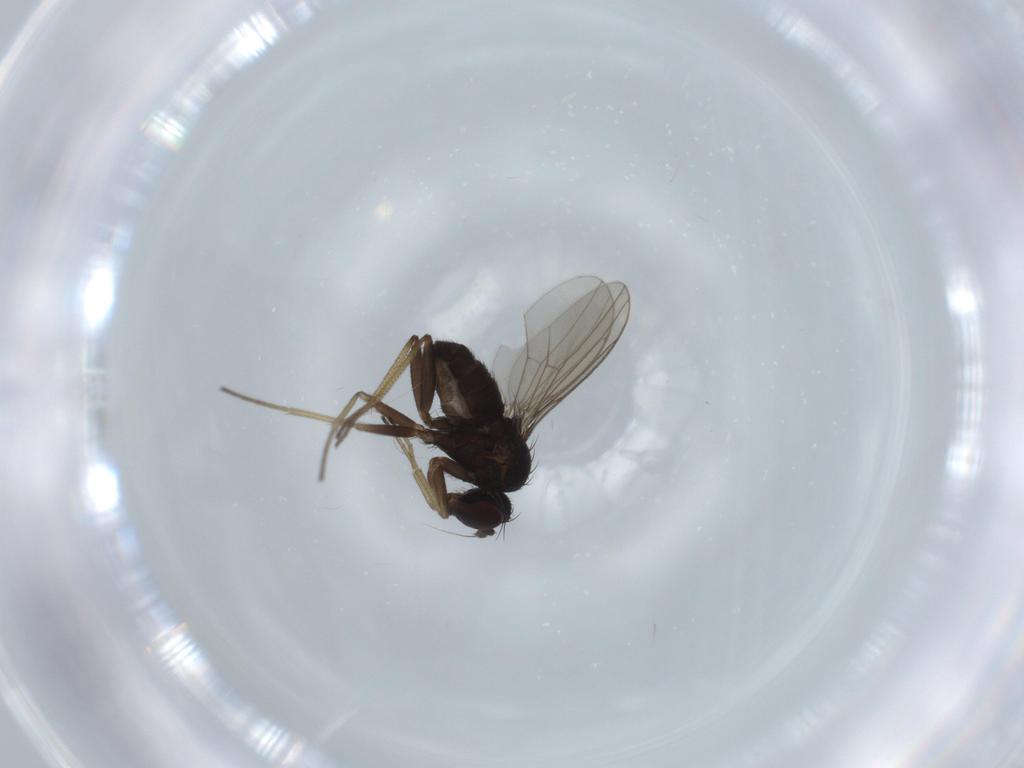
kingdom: Animalia
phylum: Arthropoda
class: Insecta
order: Diptera
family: Dolichopodidae
